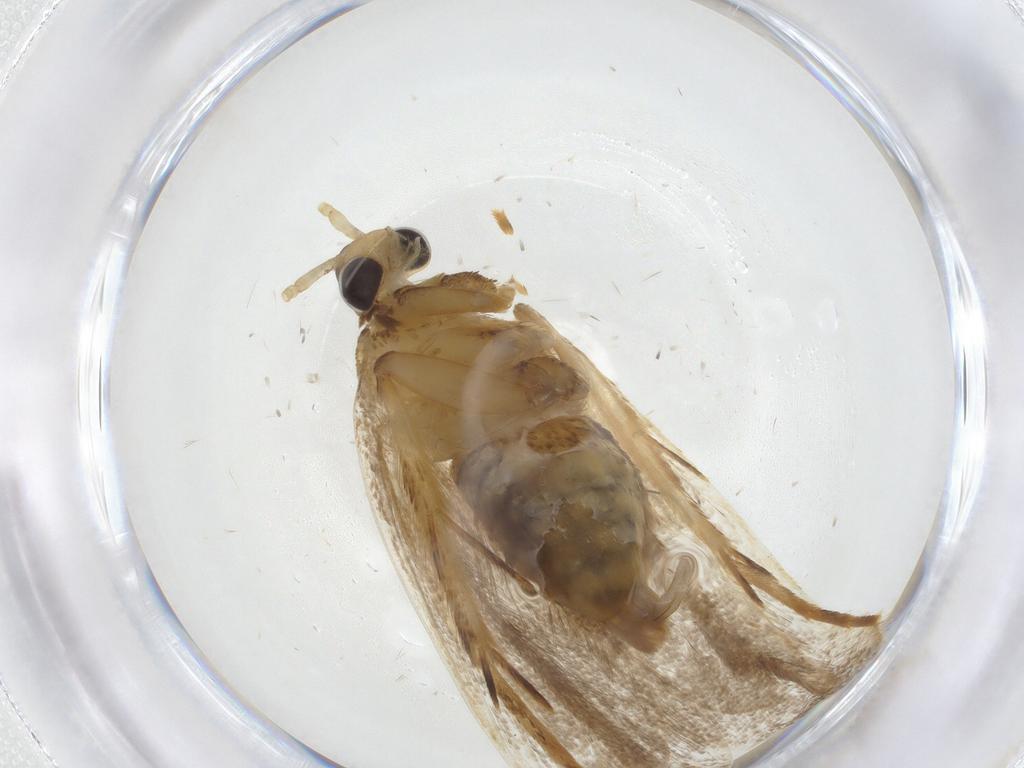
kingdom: Animalia
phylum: Arthropoda
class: Insecta
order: Lepidoptera
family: Lecithoceridae
